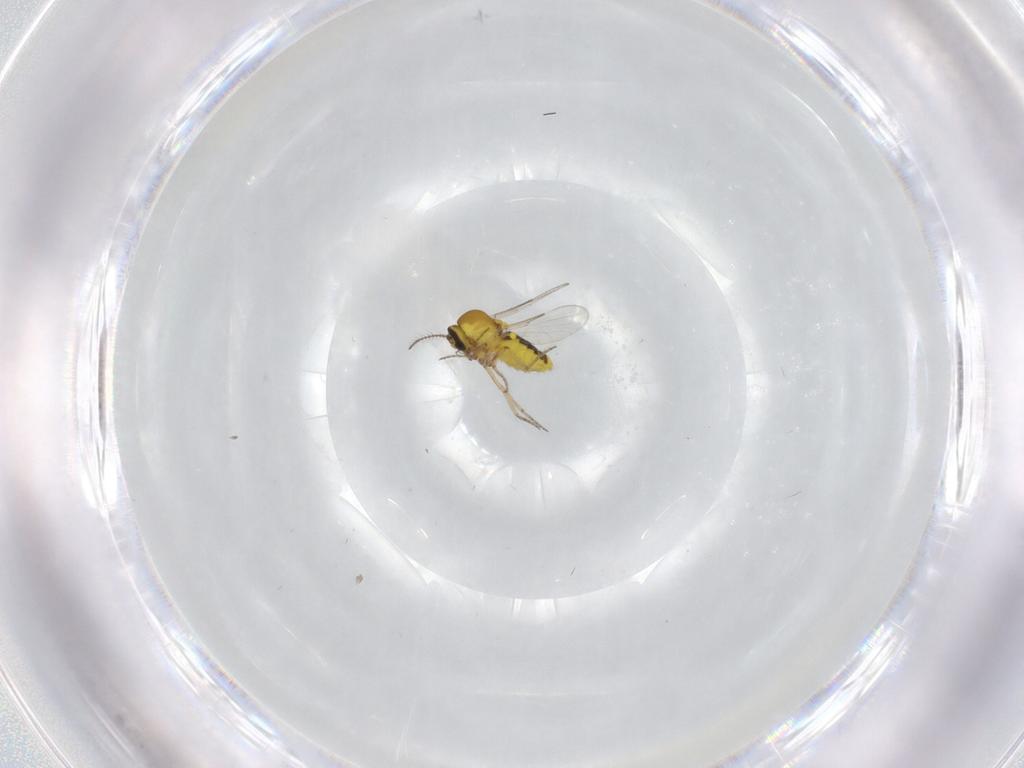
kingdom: Animalia
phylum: Arthropoda
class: Insecta
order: Diptera
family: Ceratopogonidae
